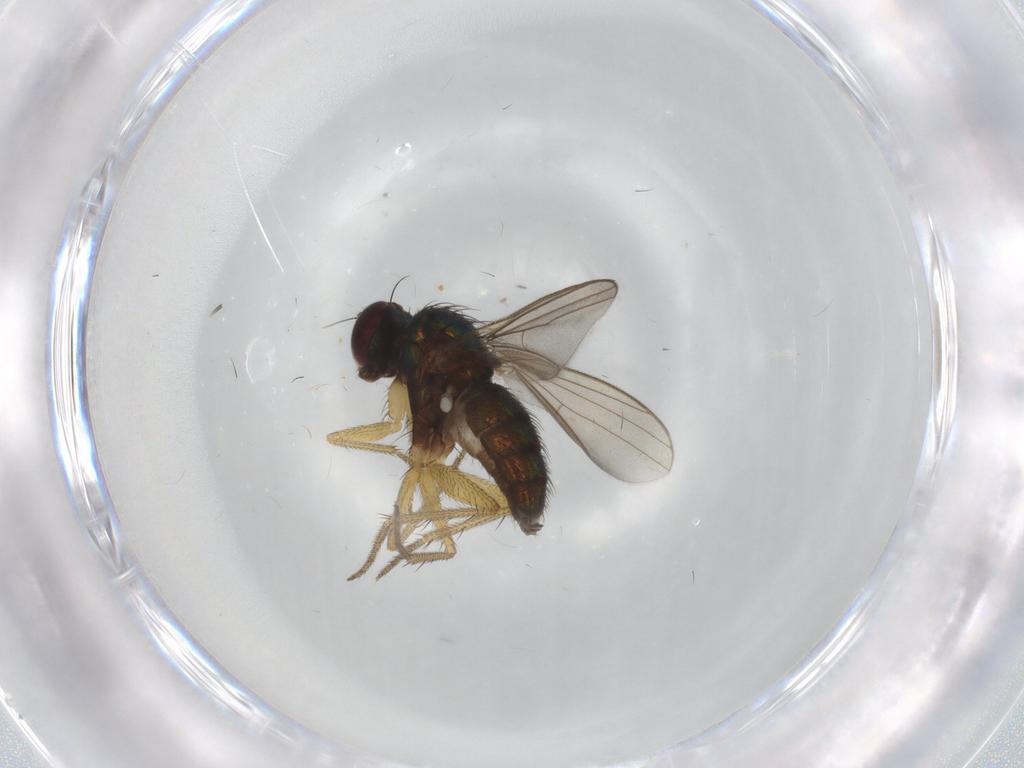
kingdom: Animalia
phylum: Arthropoda
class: Insecta
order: Diptera
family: Dolichopodidae
